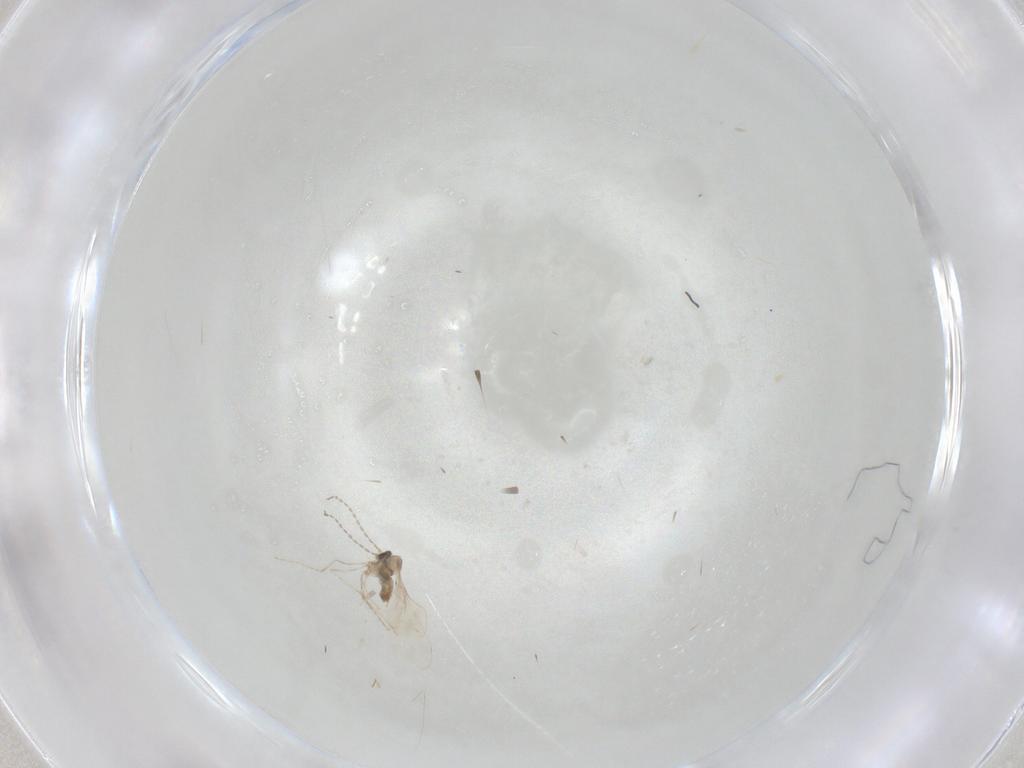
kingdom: Animalia
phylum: Arthropoda
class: Insecta
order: Diptera
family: Cecidomyiidae
